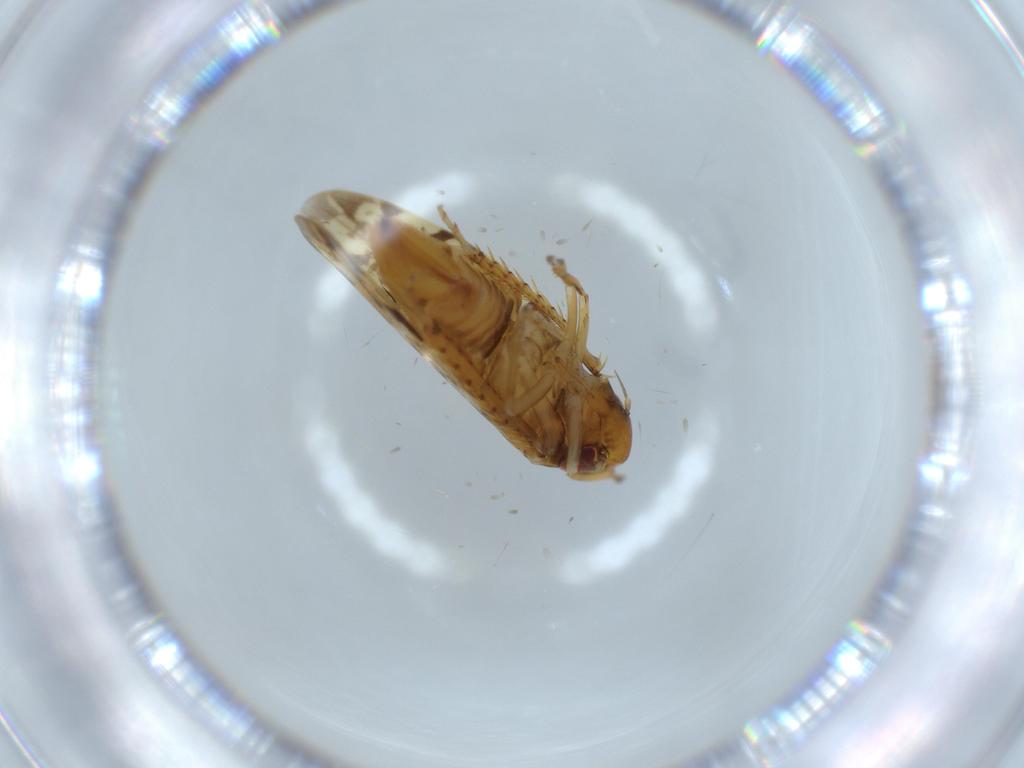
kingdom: Animalia
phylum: Arthropoda
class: Insecta
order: Hemiptera
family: Cicadellidae
